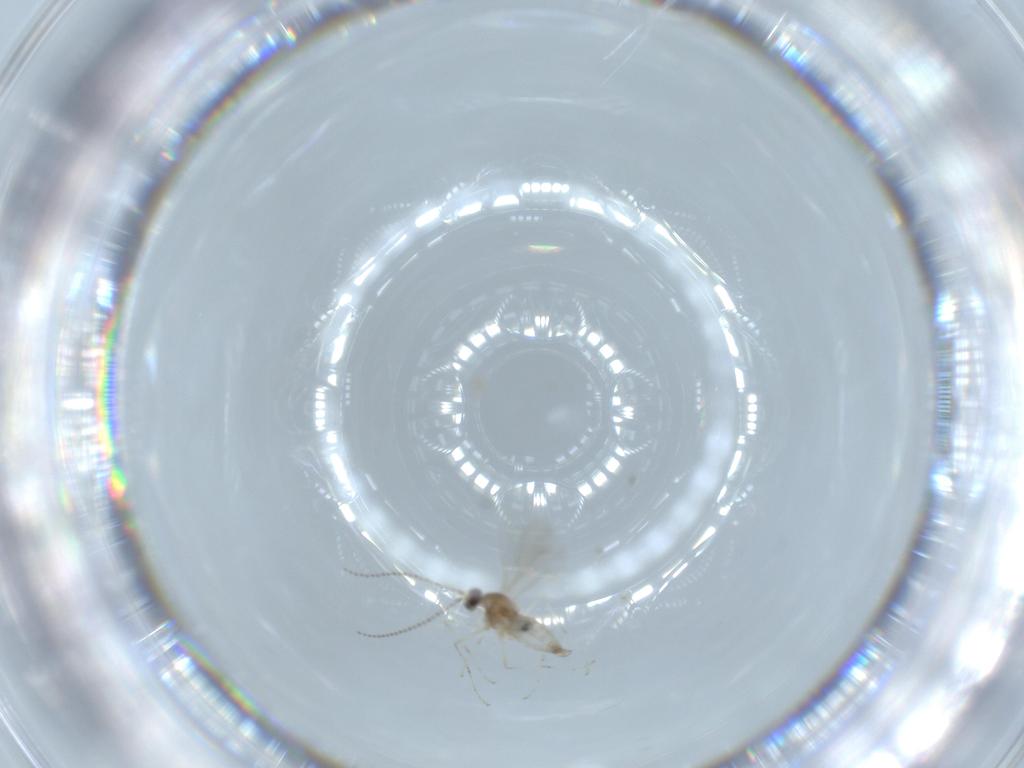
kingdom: Animalia
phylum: Arthropoda
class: Insecta
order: Diptera
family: Cecidomyiidae
